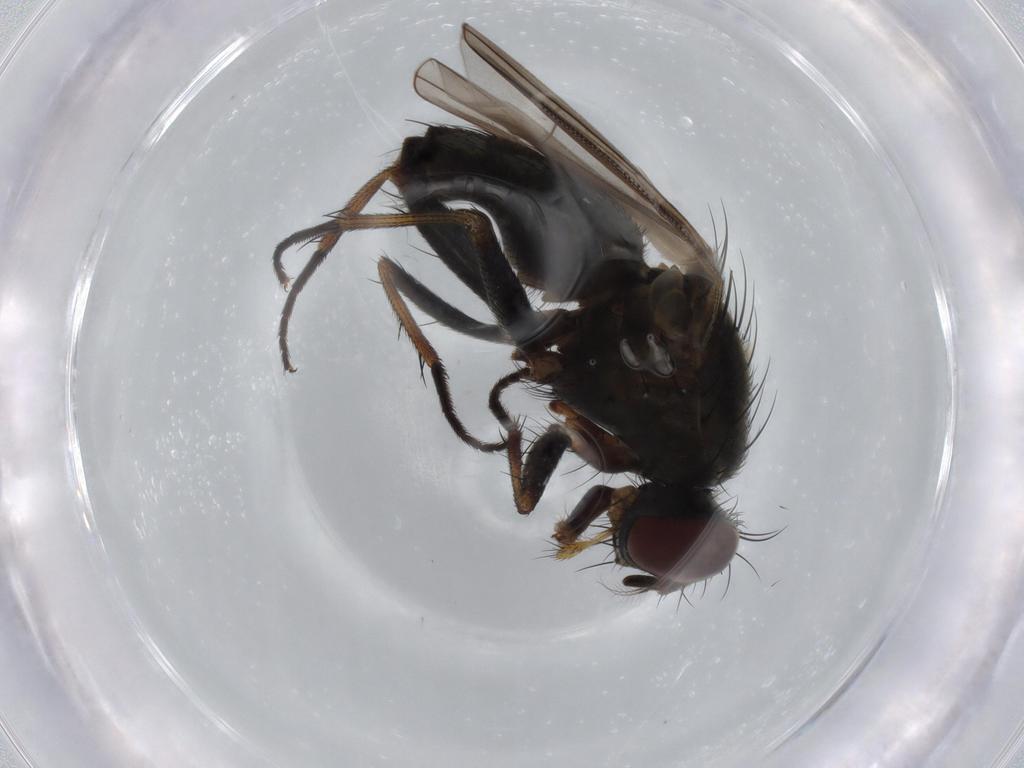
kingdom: Animalia
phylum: Arthropoda
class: Insecta
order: Diptera
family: Muscidae
